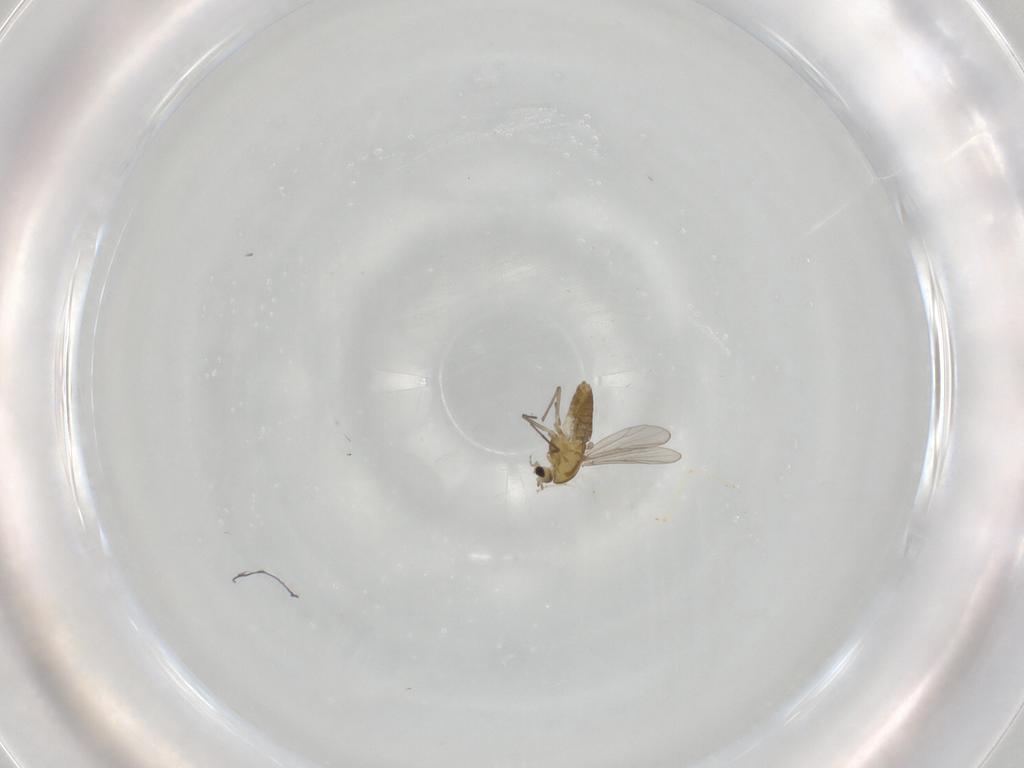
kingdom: Animalia
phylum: Arthropoda
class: Insecta
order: Diptera
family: Chironomidae
